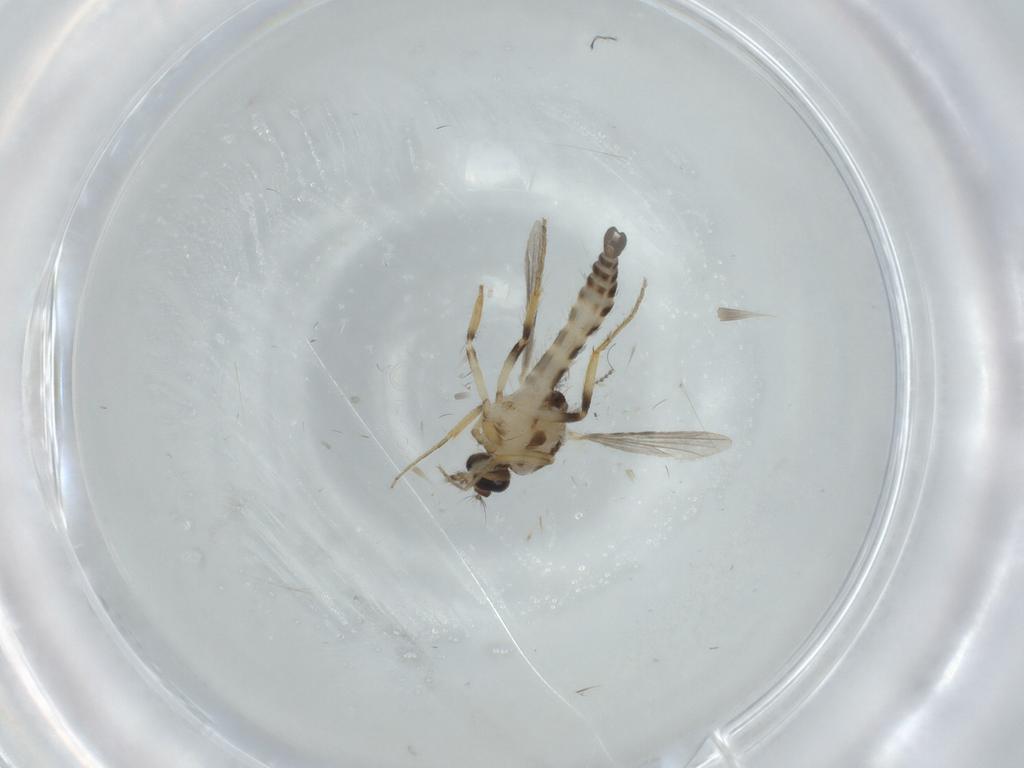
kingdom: Animalia
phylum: Arthropoda
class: Insecta
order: Diptera
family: Ceratopogonidae
